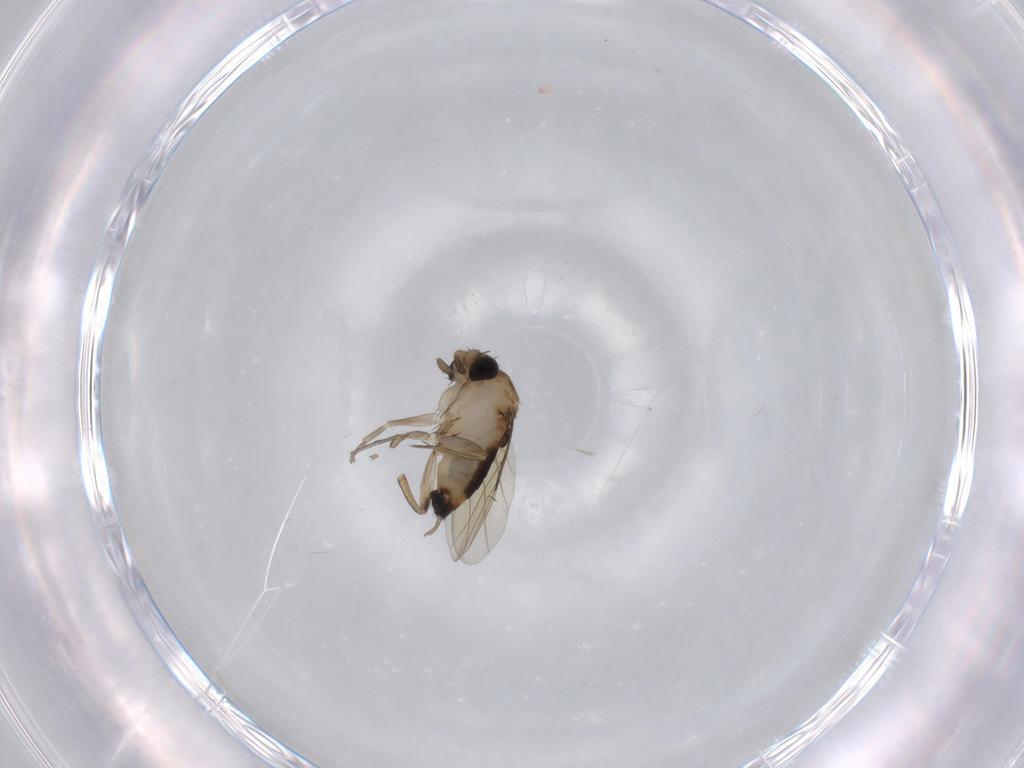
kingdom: Animalia
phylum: Arthropoda
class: Insecta
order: Diptera
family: Phoridae
